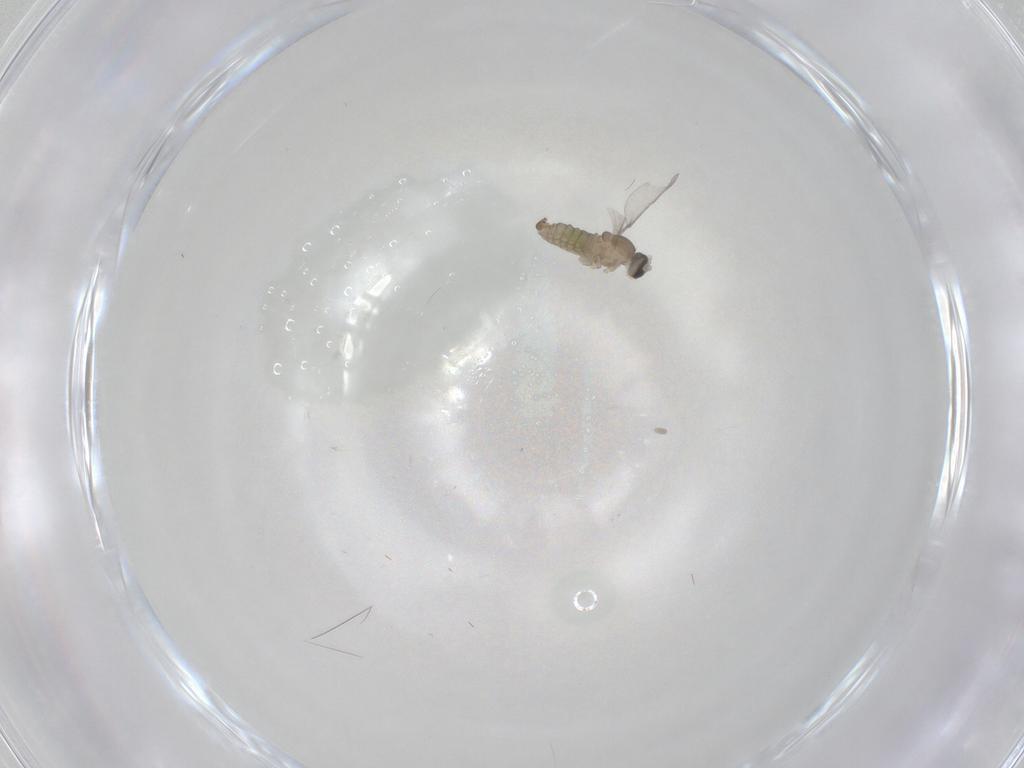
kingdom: Animalia
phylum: Arthropoda
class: Insecta
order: Diptera
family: Cecidomyiidae
